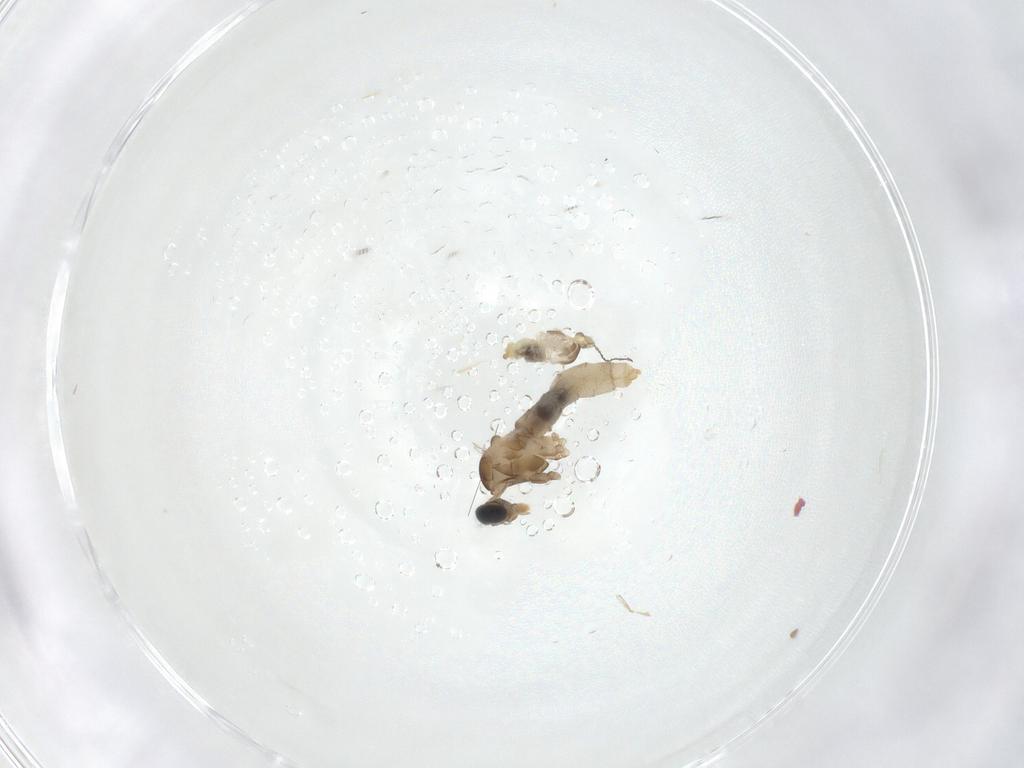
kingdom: Animalia
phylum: Arthropoda
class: Insecta
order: Diptera
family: Cecidomyiidae
